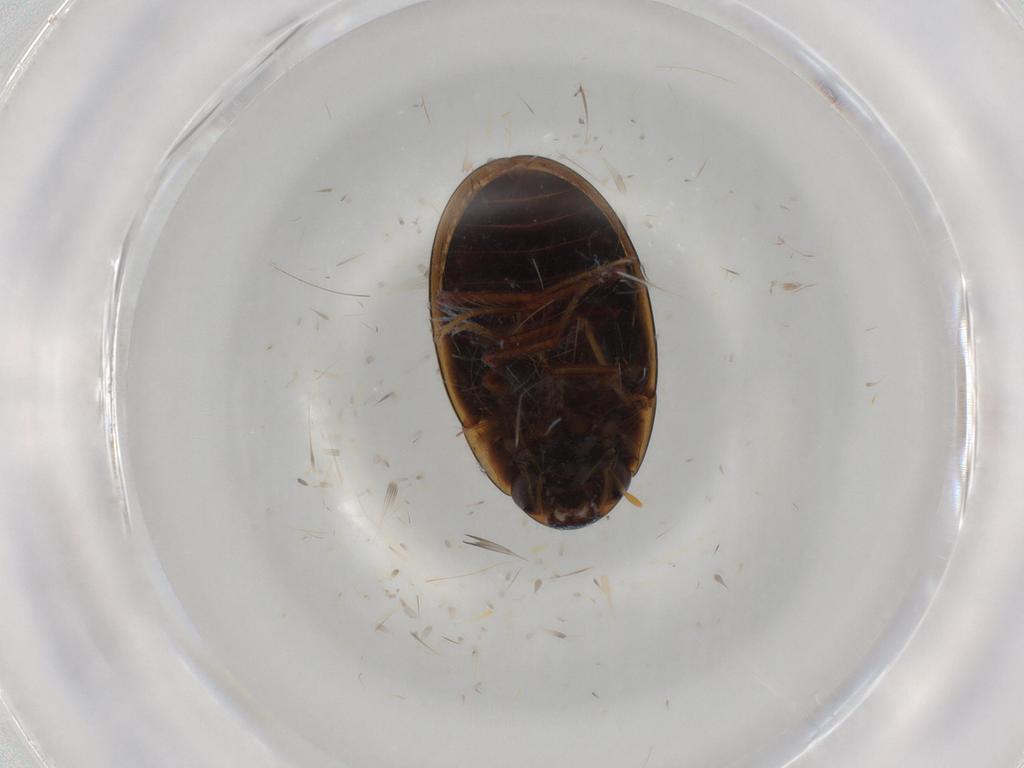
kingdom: Animalia
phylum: Arthropoda
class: Insecta
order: Coleoptera
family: Hydrophilidae
